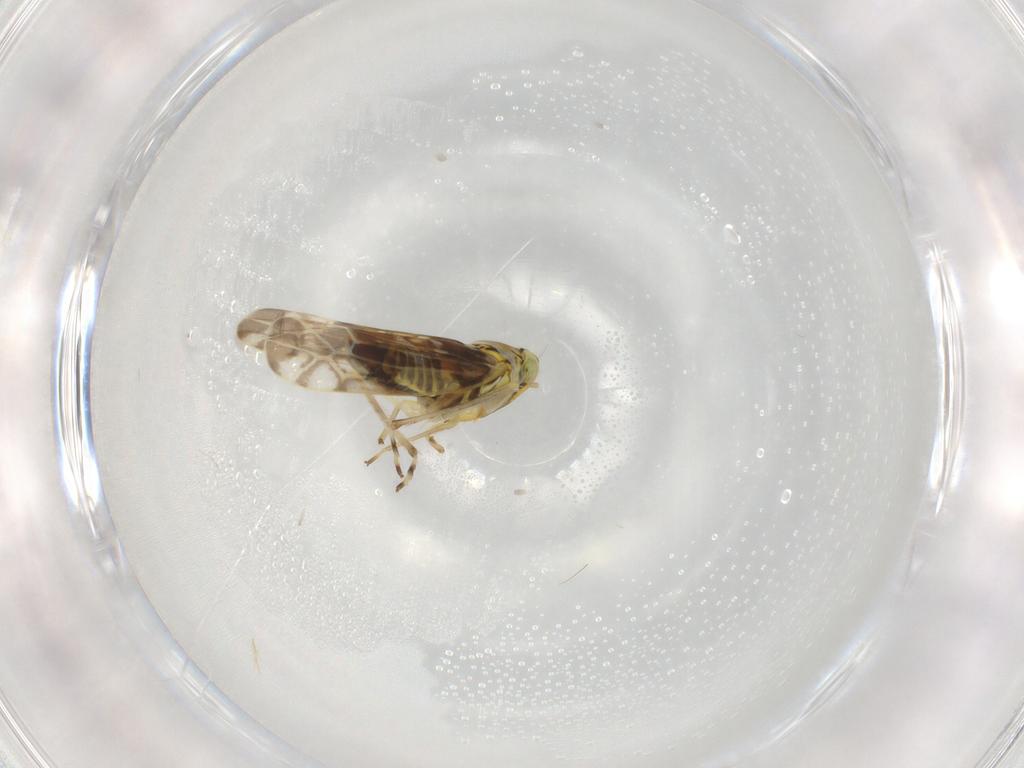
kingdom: Animalia
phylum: Arthropoda
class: Insecta
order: Hemiptera
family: Cicadellidae
